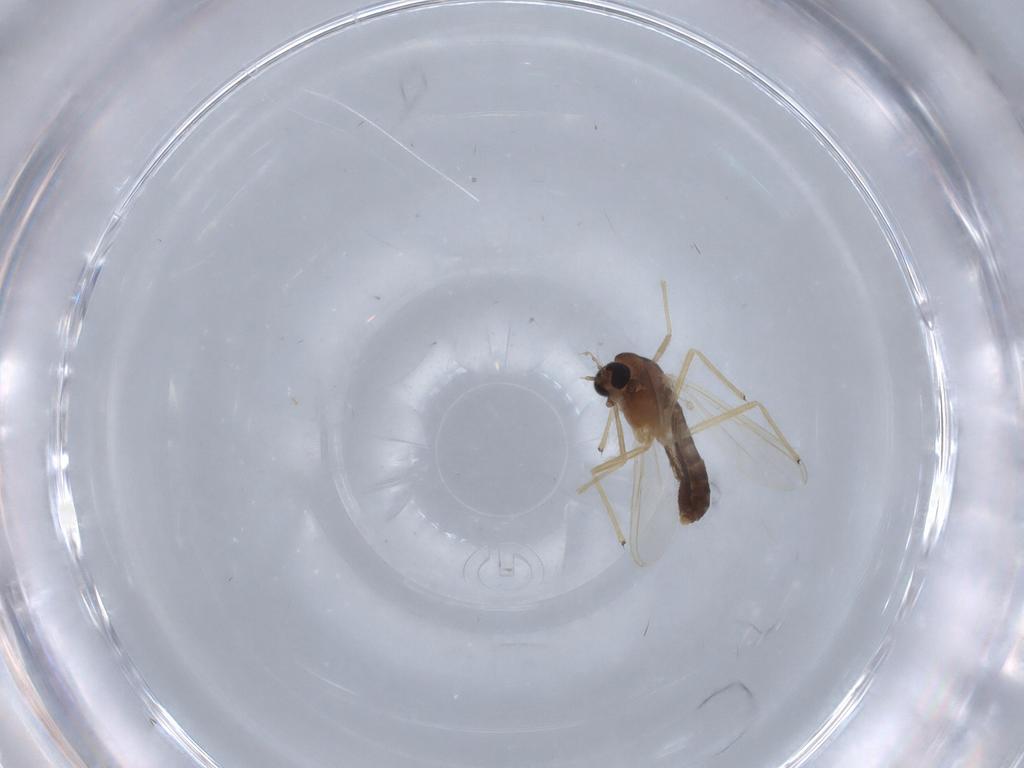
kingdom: Animalia
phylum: Arthropoda
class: Insecta
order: Diptera
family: Chironomidae
